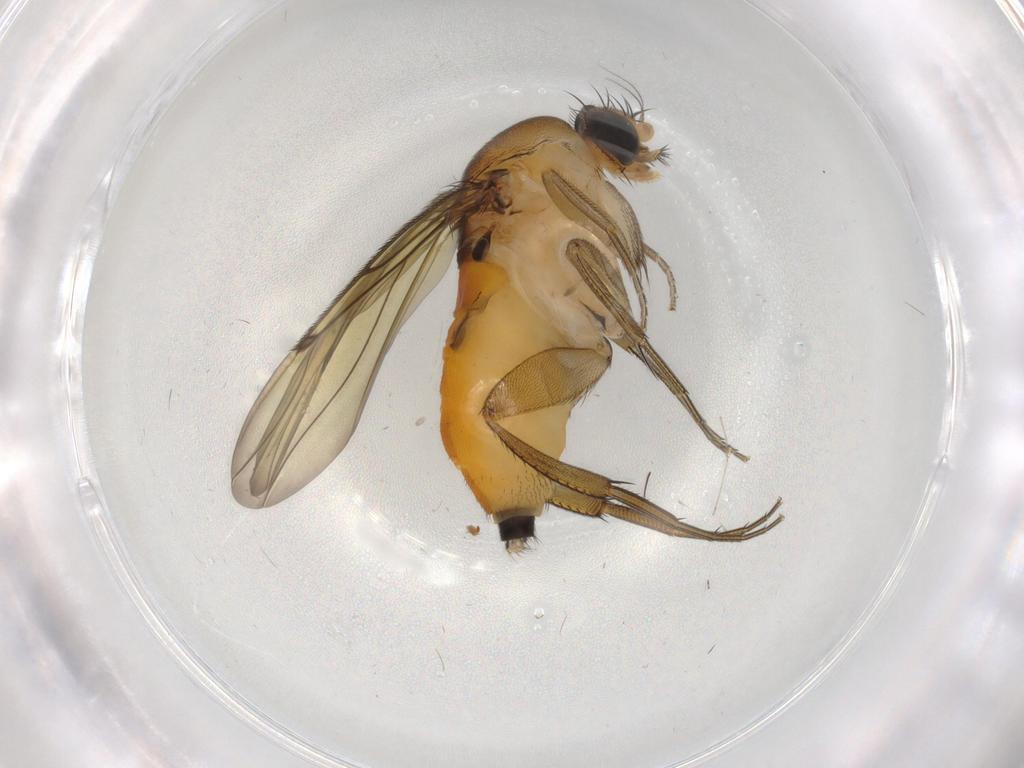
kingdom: Animalia
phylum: Arthropoda
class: Insecta
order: Diptera
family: Phoridae
